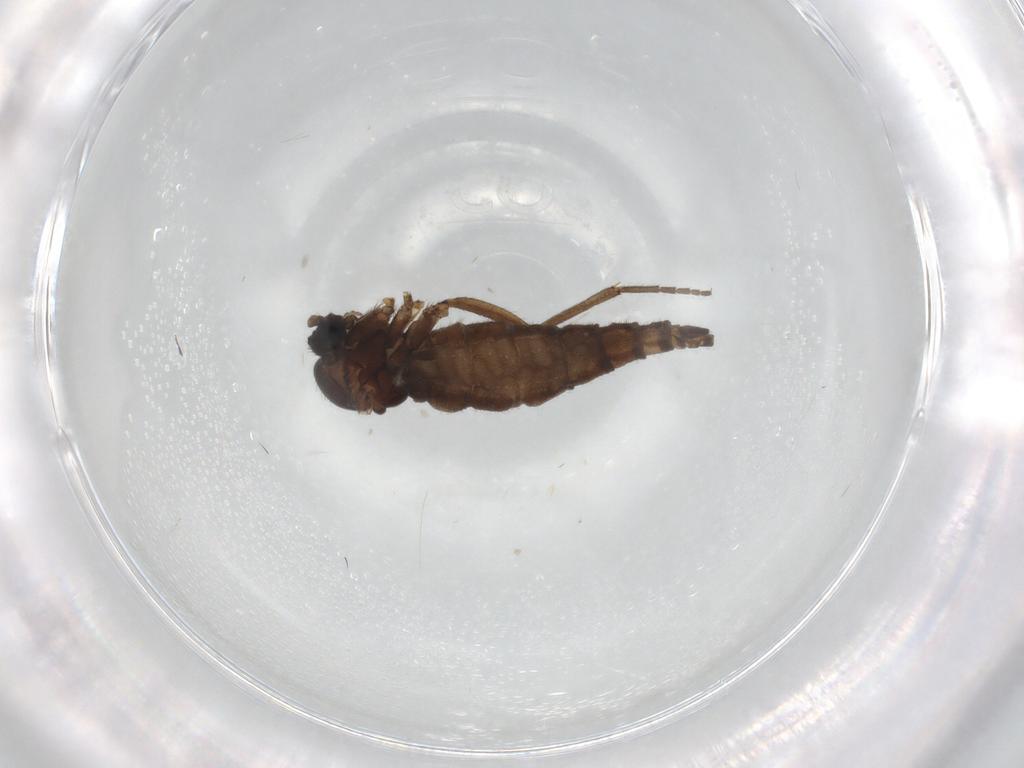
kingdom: Animalia
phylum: Arthropoda
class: Insecta
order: Diptera
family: Sciaridae
